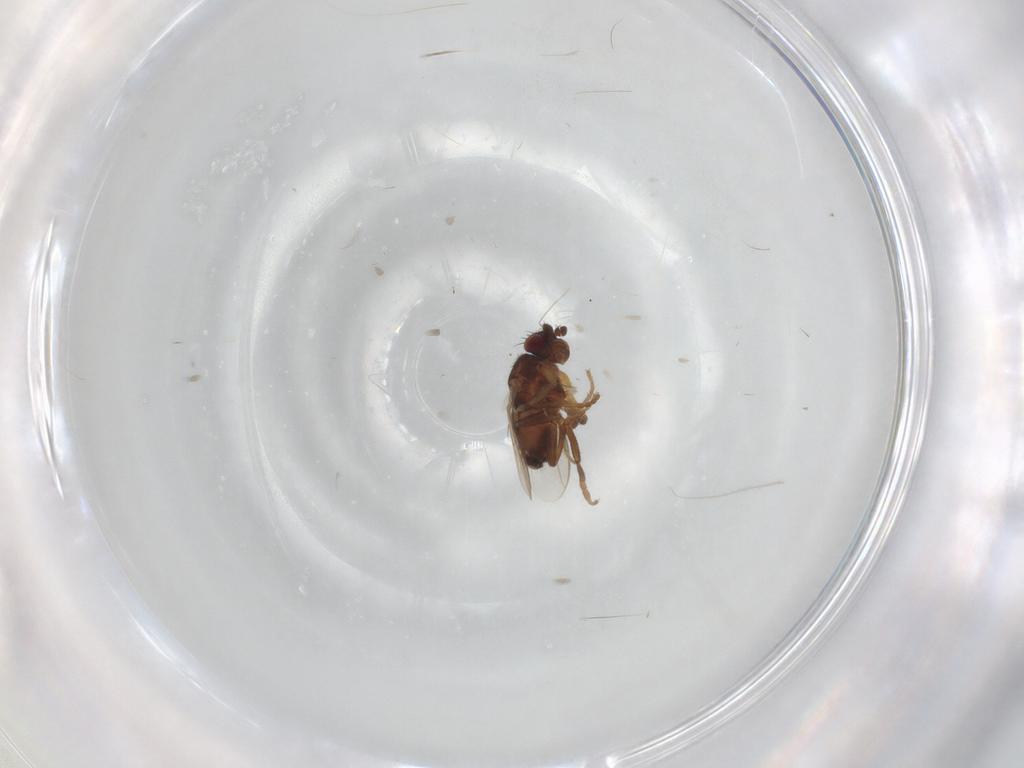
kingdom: Animalia
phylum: Arthropoda
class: Insecta
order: Diptera
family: Sphaeroceridae
